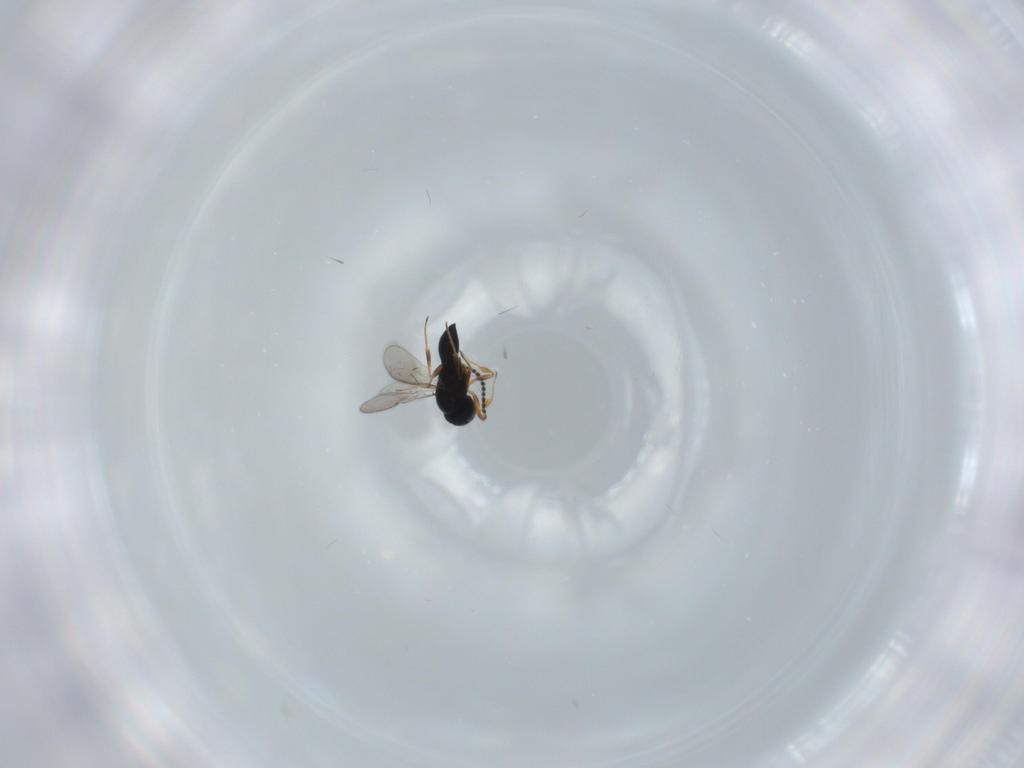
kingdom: Animalia
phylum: Arthropoda
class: Insecta
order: Hymenoptera
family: Scelionidae
